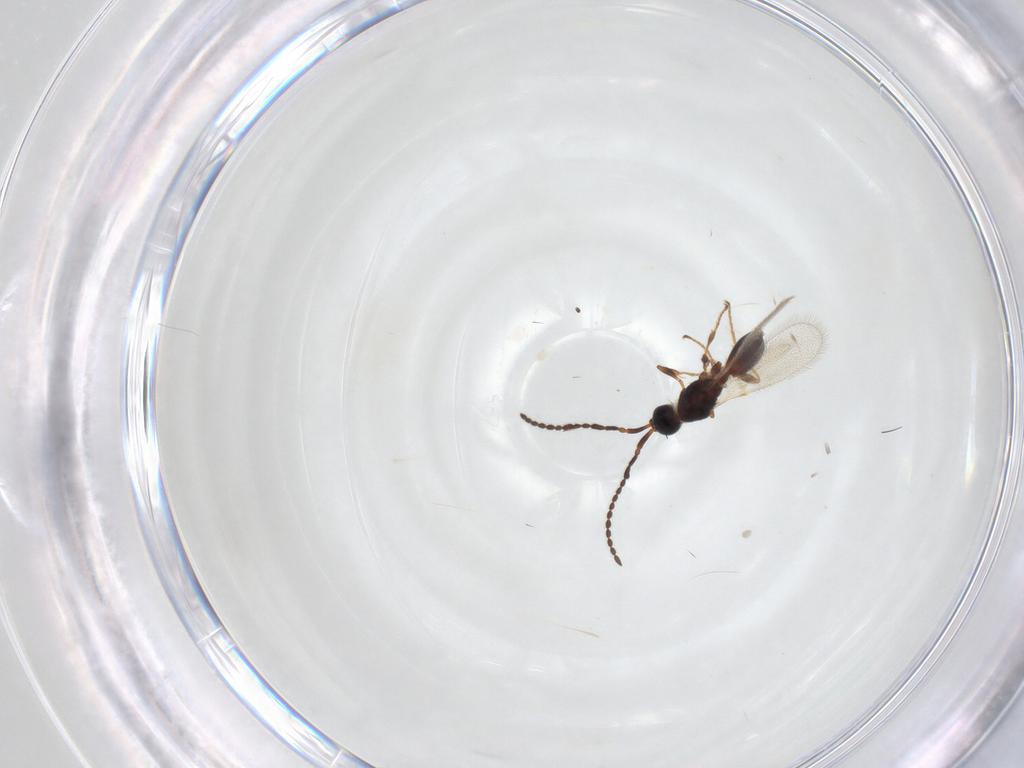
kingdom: Animalia
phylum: Arthropoda
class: Insecta
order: Hymenoptera
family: Diapriidae
